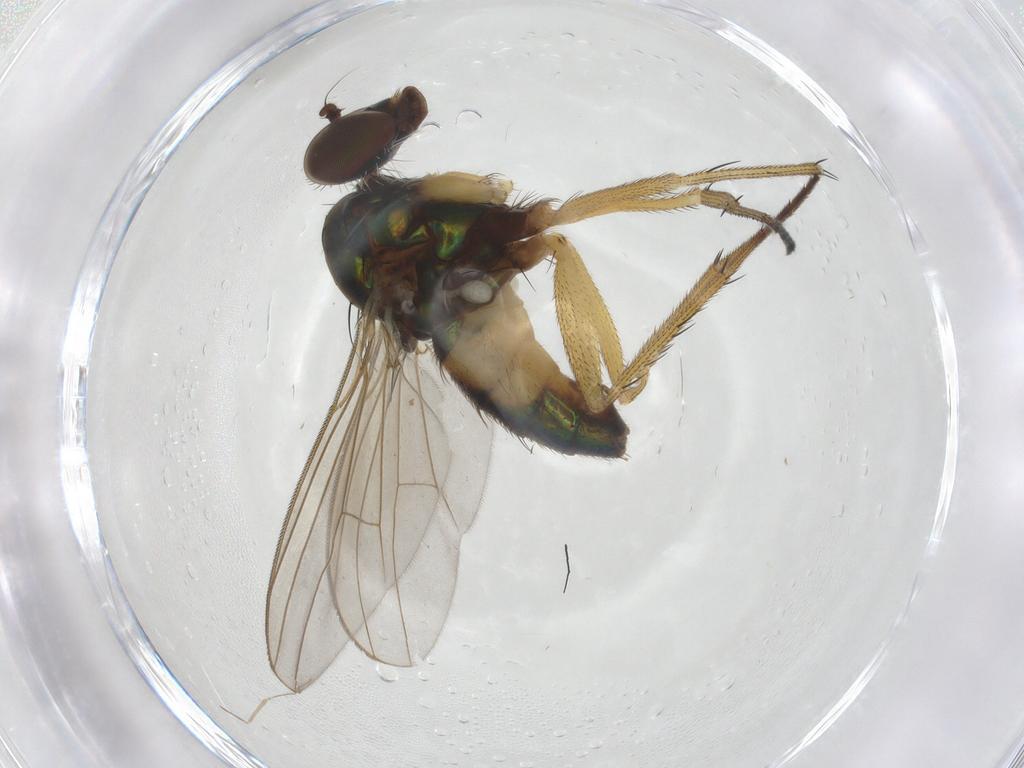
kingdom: Animalia
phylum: Arthropoda
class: Insecta
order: Diptera
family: Cecidomyiidae
